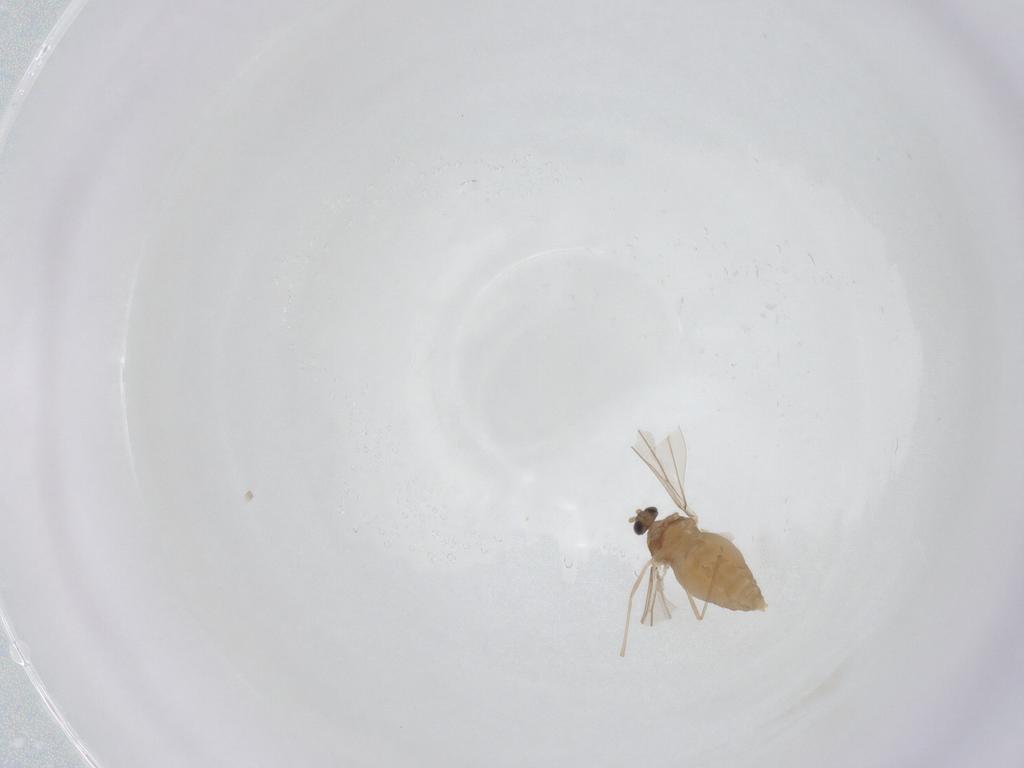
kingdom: Animalia
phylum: Arthropoda
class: Insecta
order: Diptera
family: Cecidomyiidae
